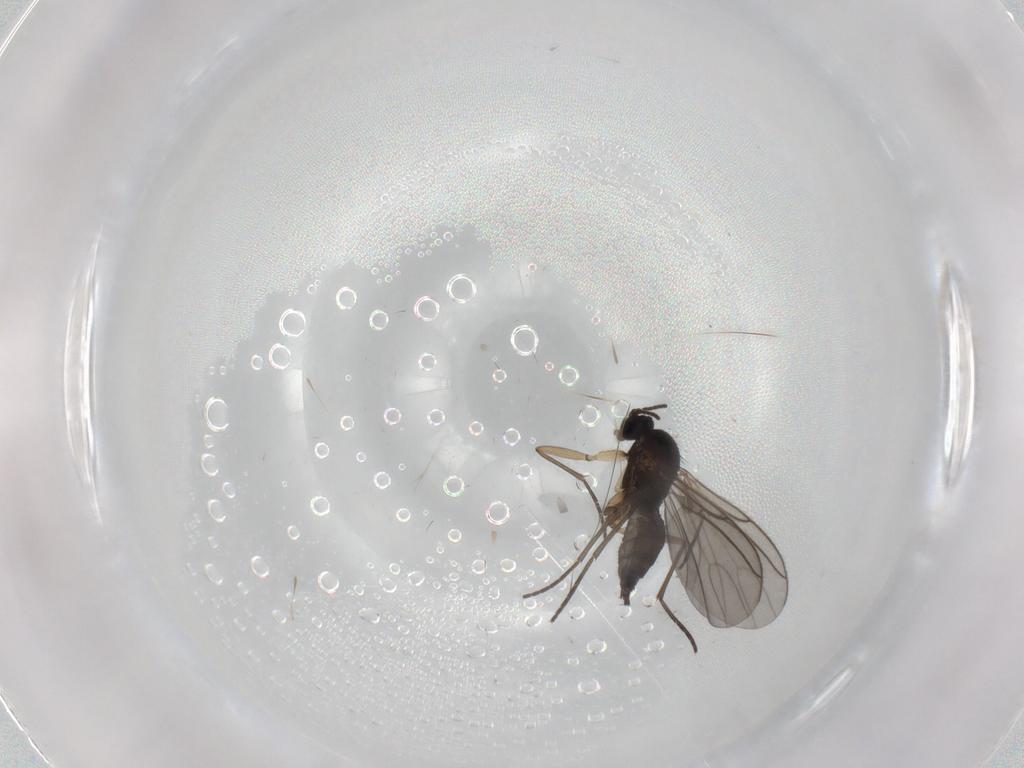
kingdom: Animalia
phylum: Arthropoda
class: Insecta
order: Diptera
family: Sciaridae
